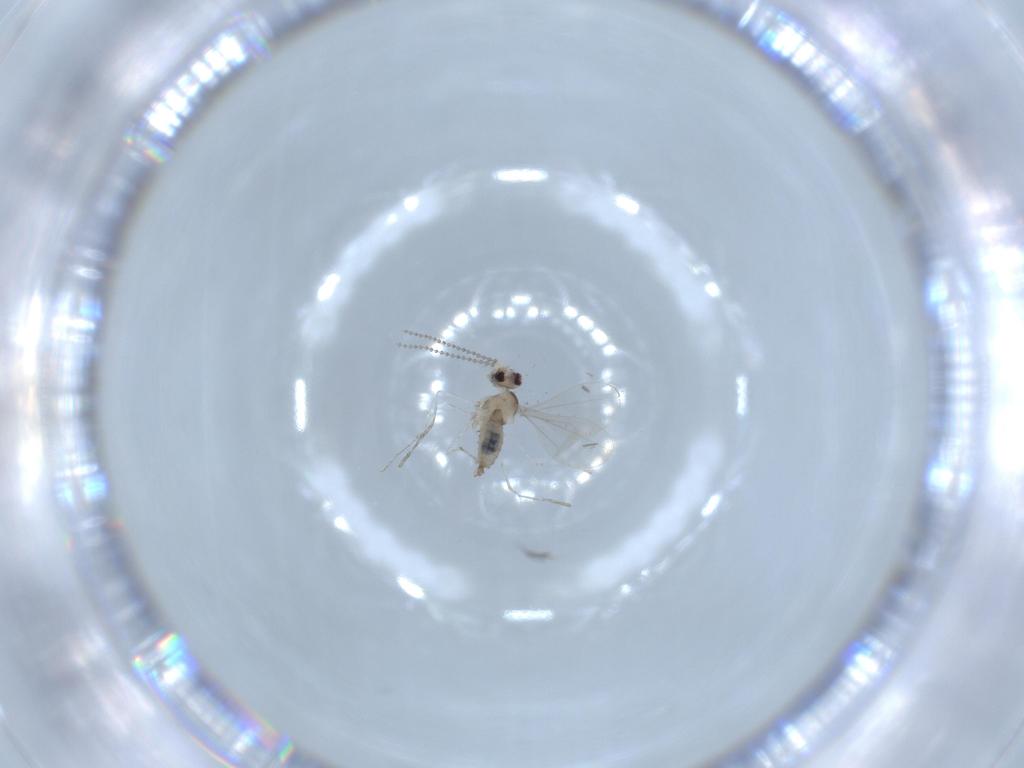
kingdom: Animalia
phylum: Arthropoda
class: Insecta
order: Diptera
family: Cecidomyiidae
